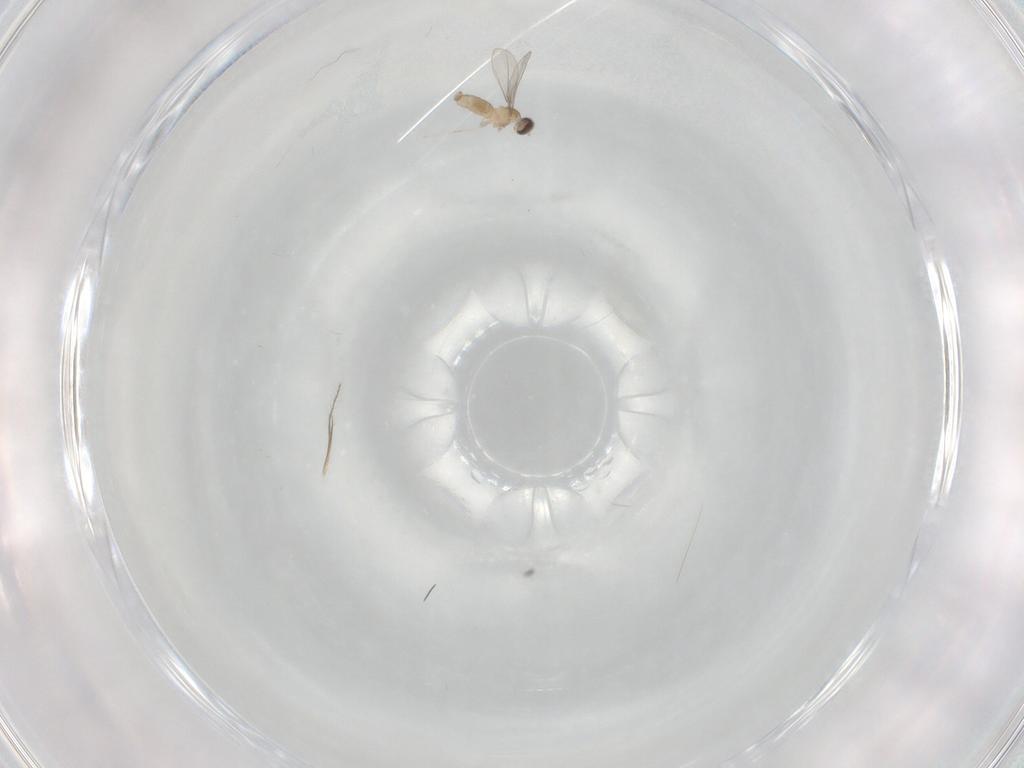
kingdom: Animalia
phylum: Arthropoda
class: Insecta
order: Diptera
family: Cecidomyiidae
